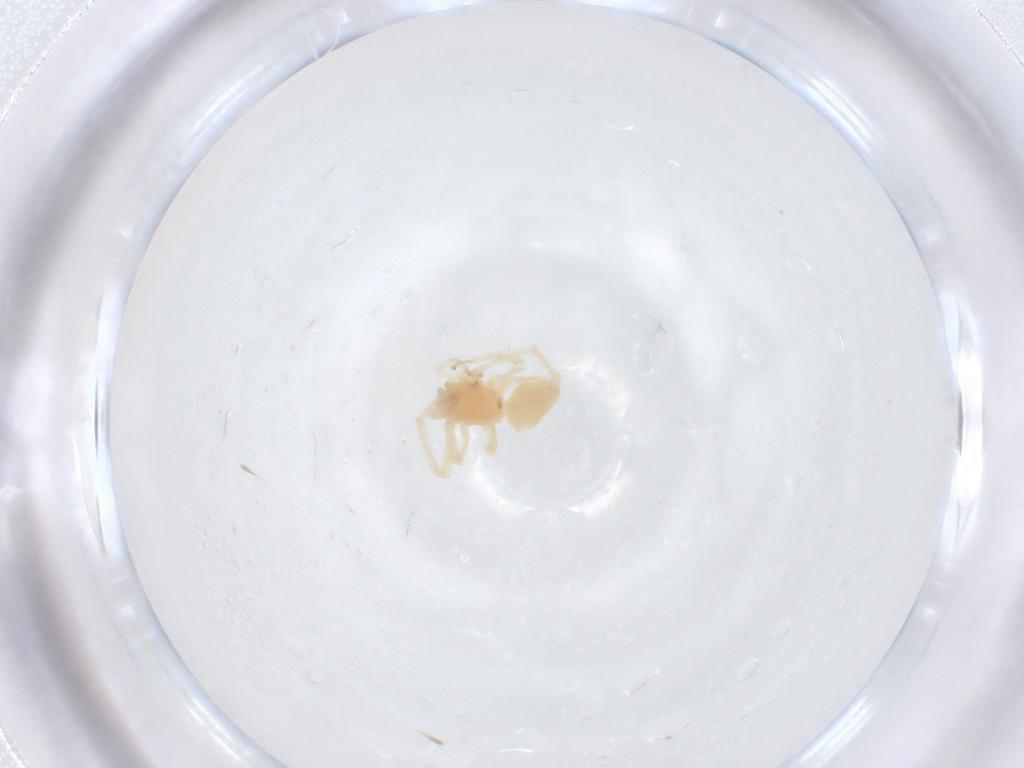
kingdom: Animalia
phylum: Arthropoda
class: Arachnida
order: Araneae
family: Anyphaenidae
